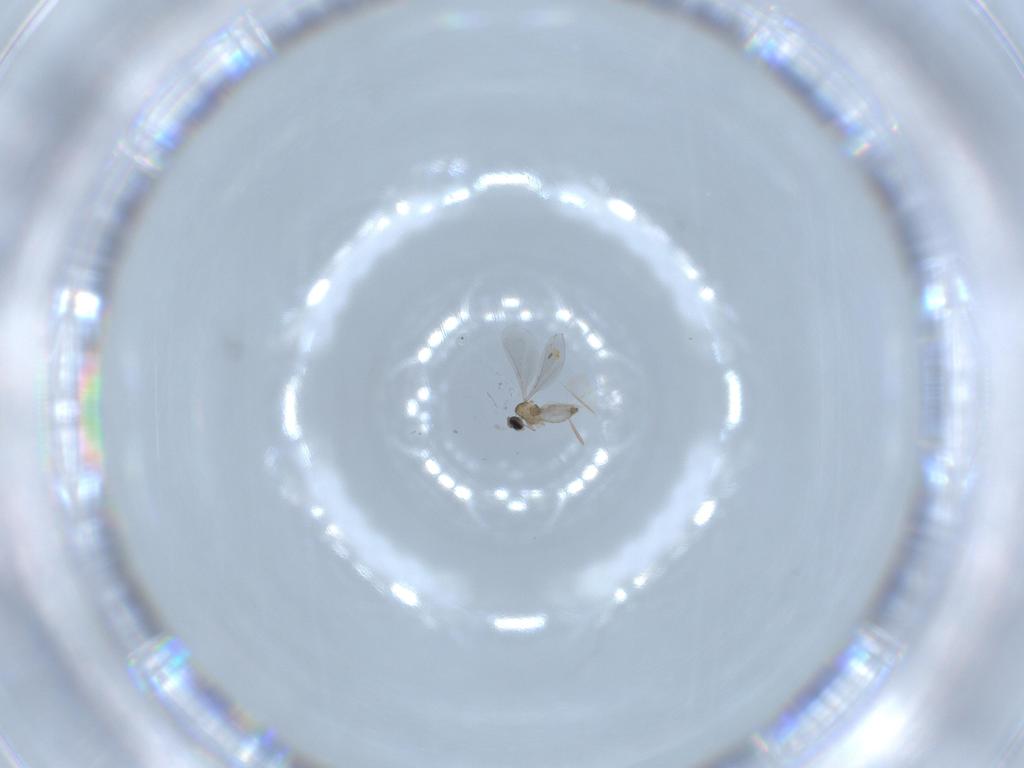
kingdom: Animalia
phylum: Arthropoda
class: Insecta
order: Diptera
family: Cecidomyiidae
